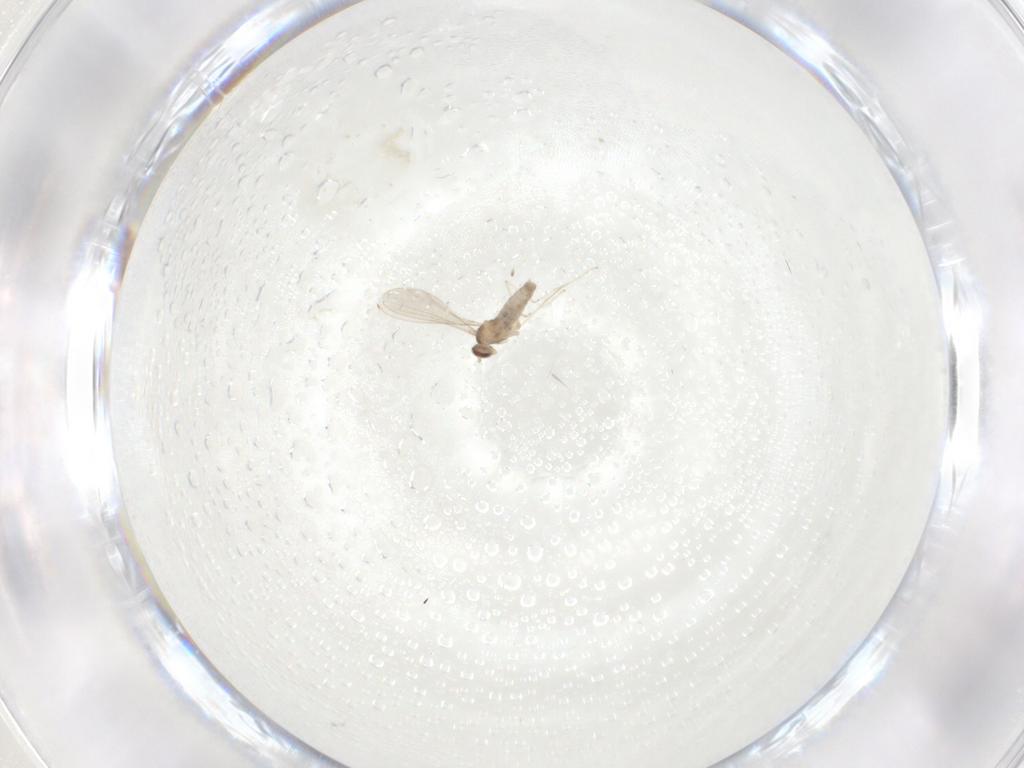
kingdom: Animalia
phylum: Arthropoda
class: Insecta
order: Diptera
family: Cecidomyiidae
